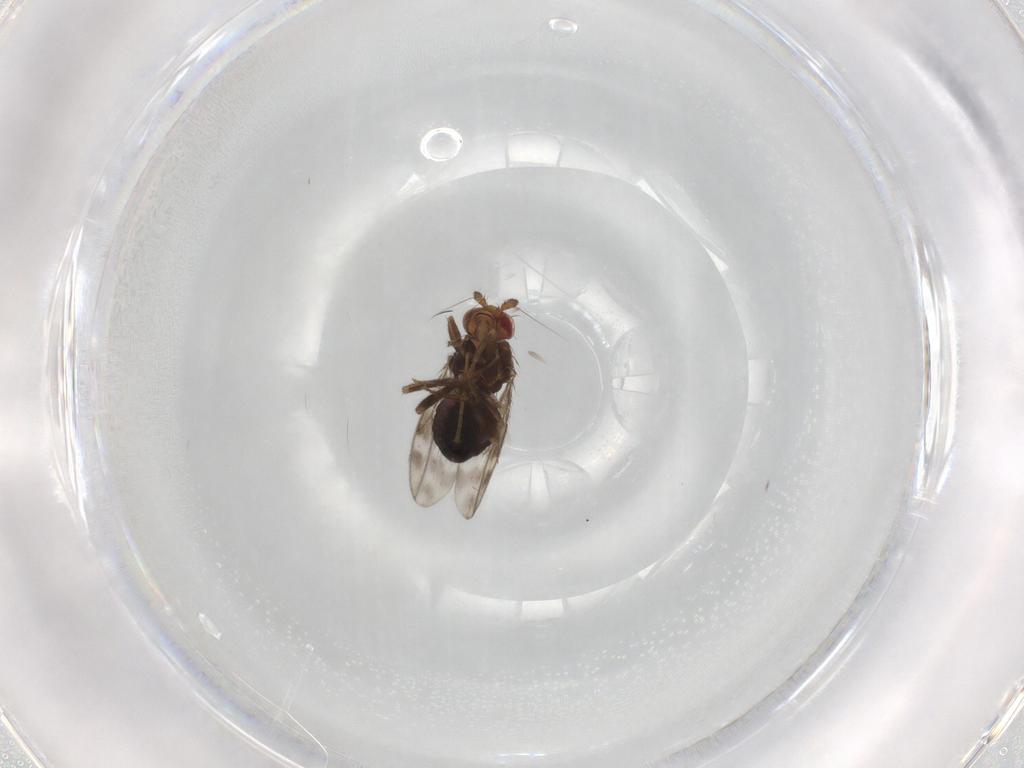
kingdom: Animalia
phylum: Arthropoda
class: Insecta
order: Diptera
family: Sphaeroceridae
